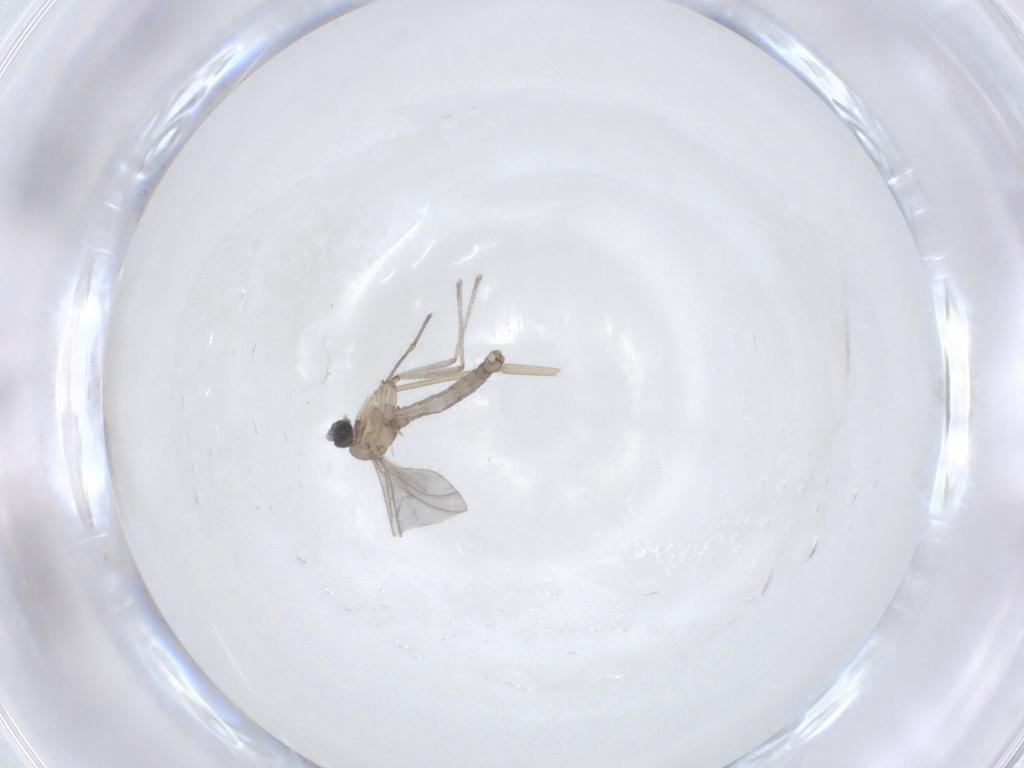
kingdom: Animalia
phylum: Arthropoda
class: Insecta
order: Diptera
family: Sciaridae
